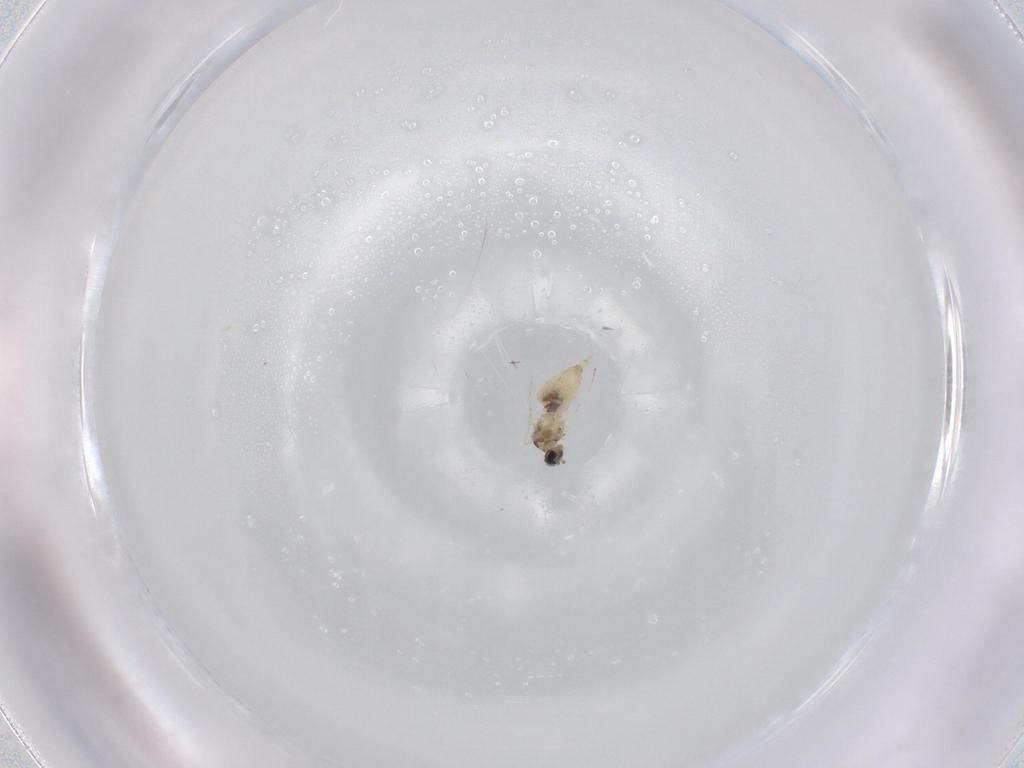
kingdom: Animalia
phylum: Arthropoda
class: Insecta
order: Diptera
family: Cecidomyiidae
